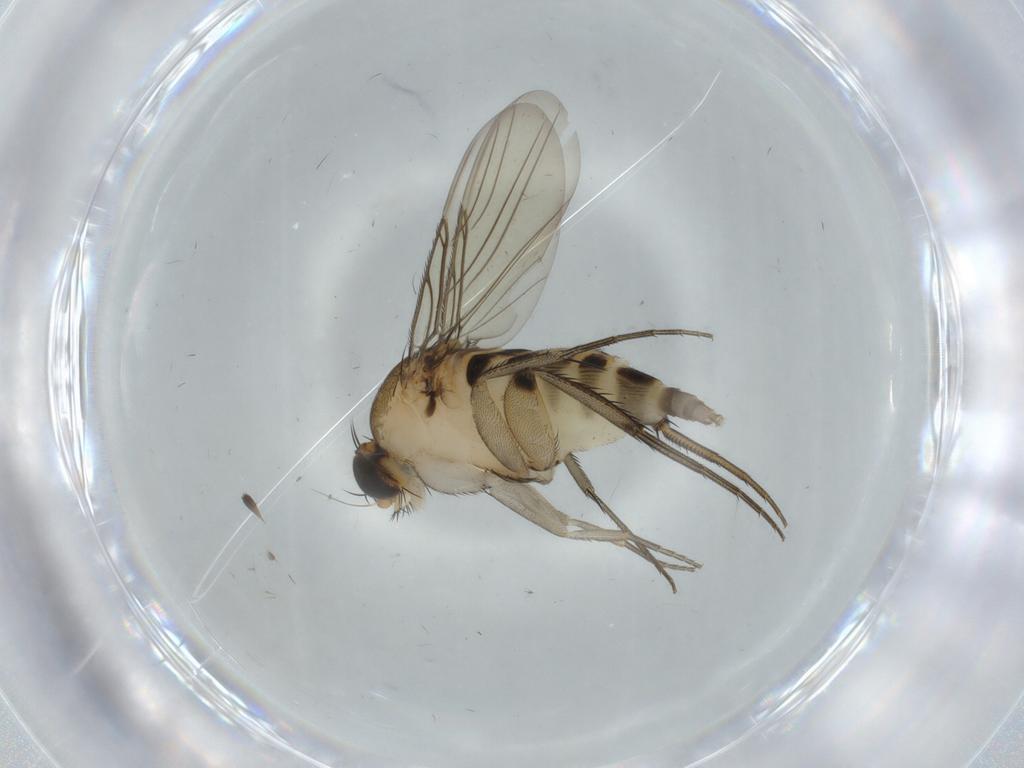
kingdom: Animalia
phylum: Arthropoda
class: Insecta
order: Diptera
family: Phoridae
